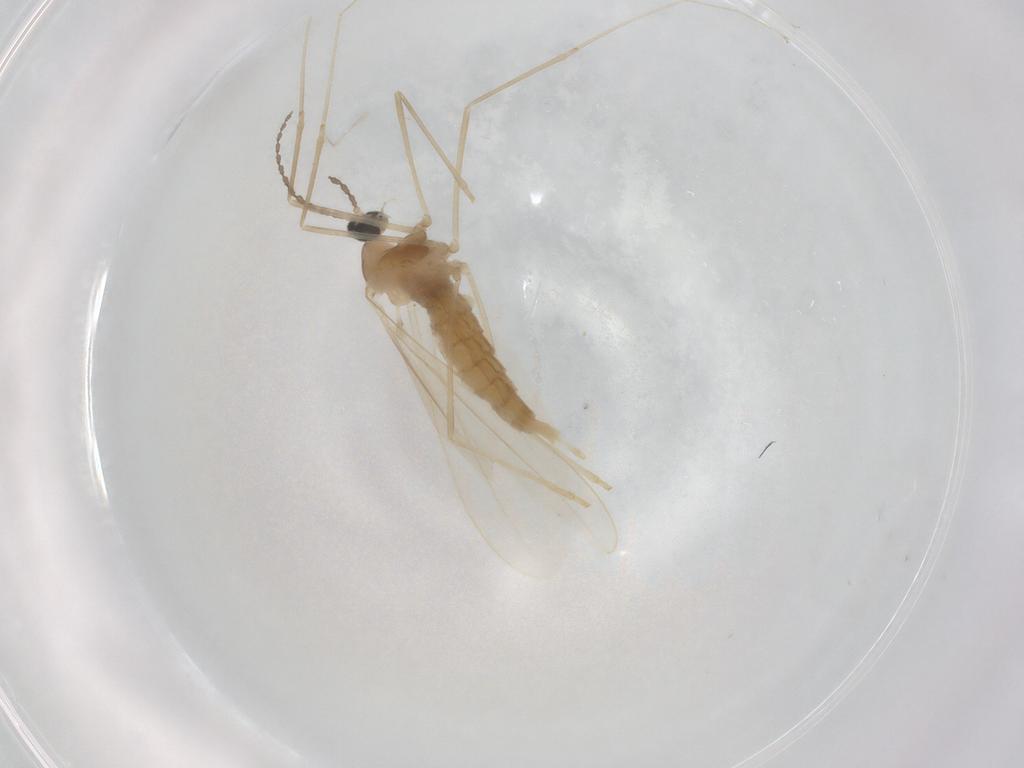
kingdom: Animalia
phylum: Arthropoda
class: Insecta
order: Diptera
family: Cecidomyiidae
